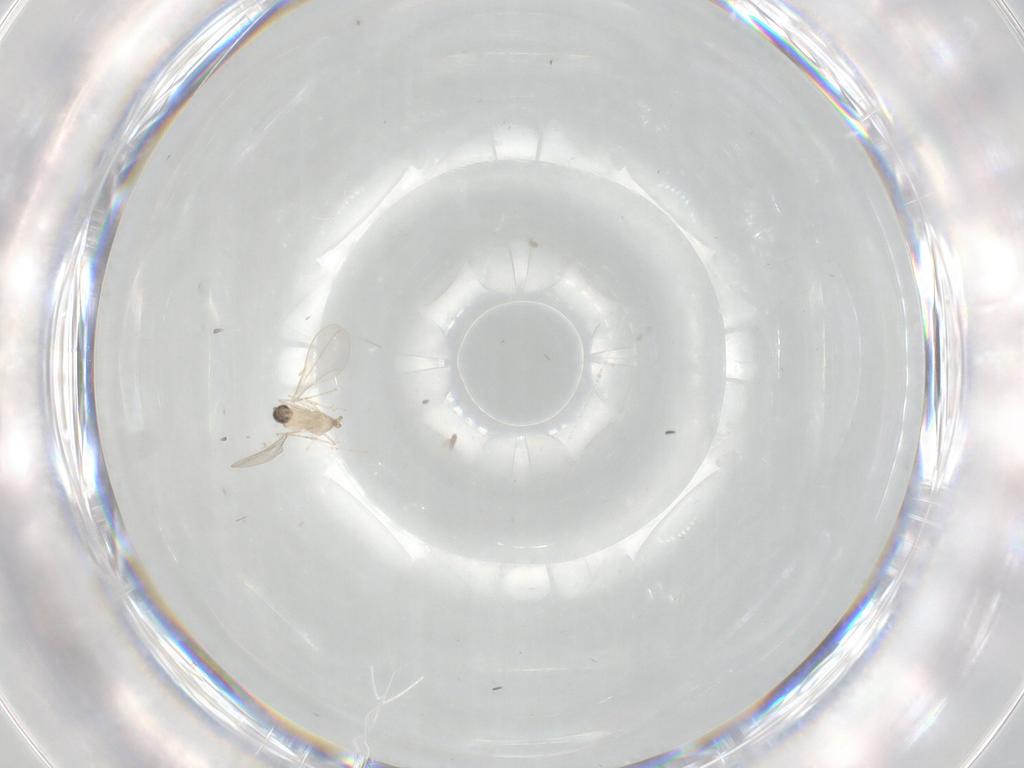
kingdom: Animalia
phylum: Arthropoda
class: Insecta
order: Diptera
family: Cecidomyiidae
